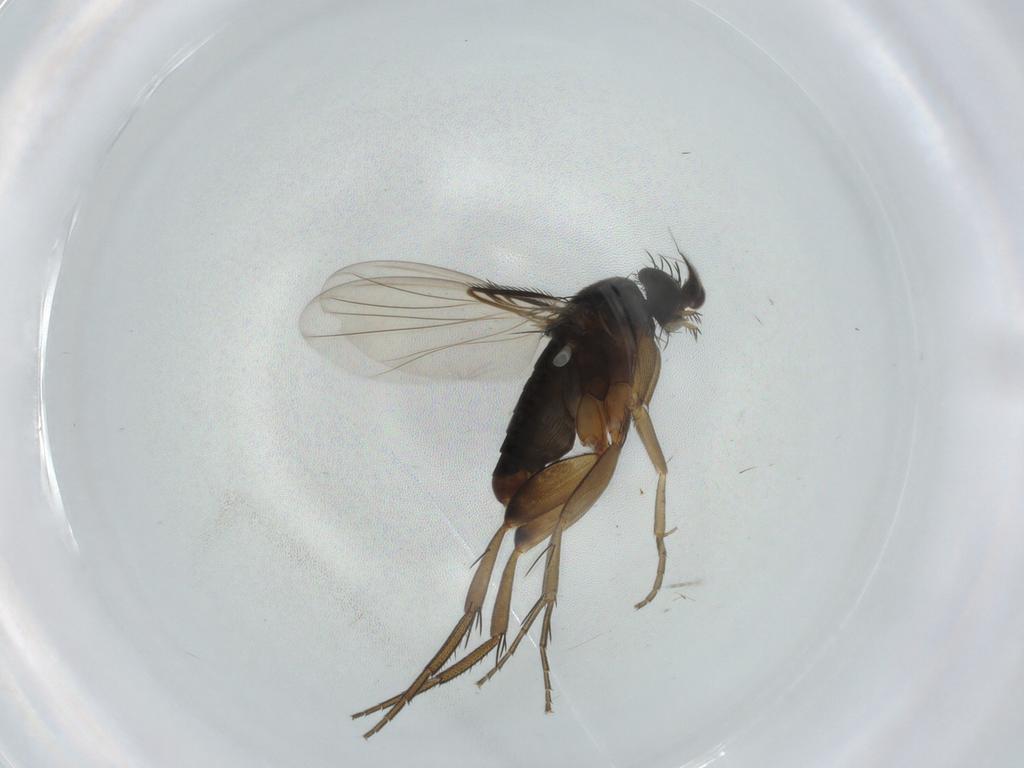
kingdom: Animalia
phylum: Arthropoda
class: Insecta
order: Diptera
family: Phoridae
